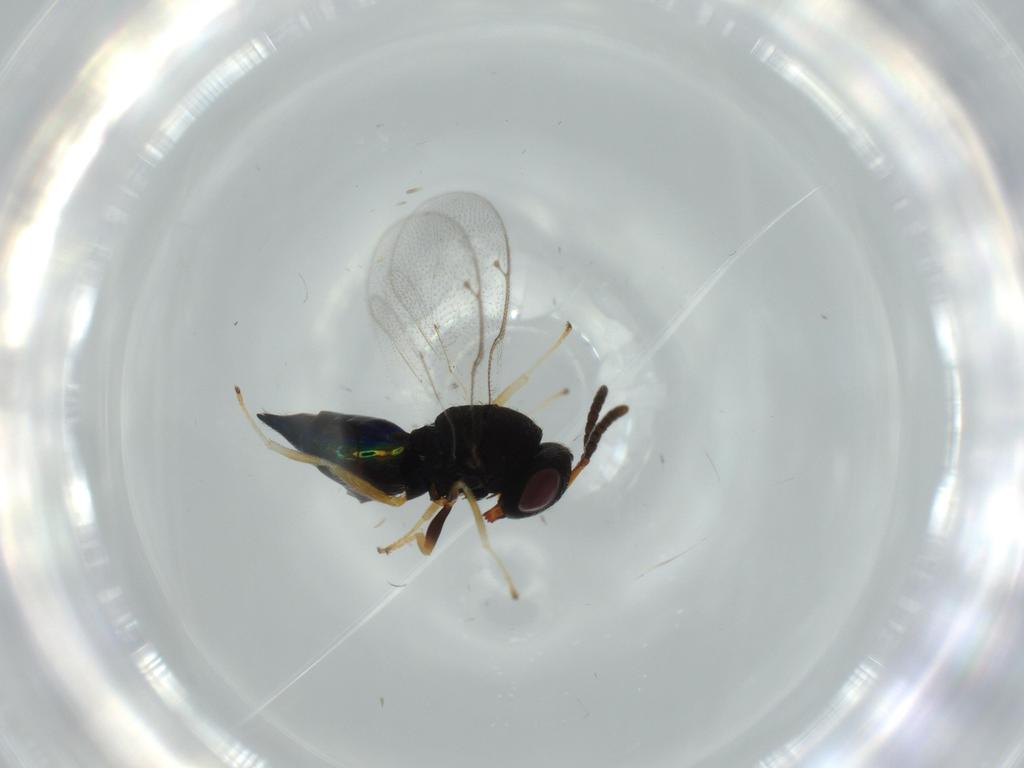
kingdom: Animalia
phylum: Arthropoda
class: Insecta
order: Hymenoptera
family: Pteromalidae
